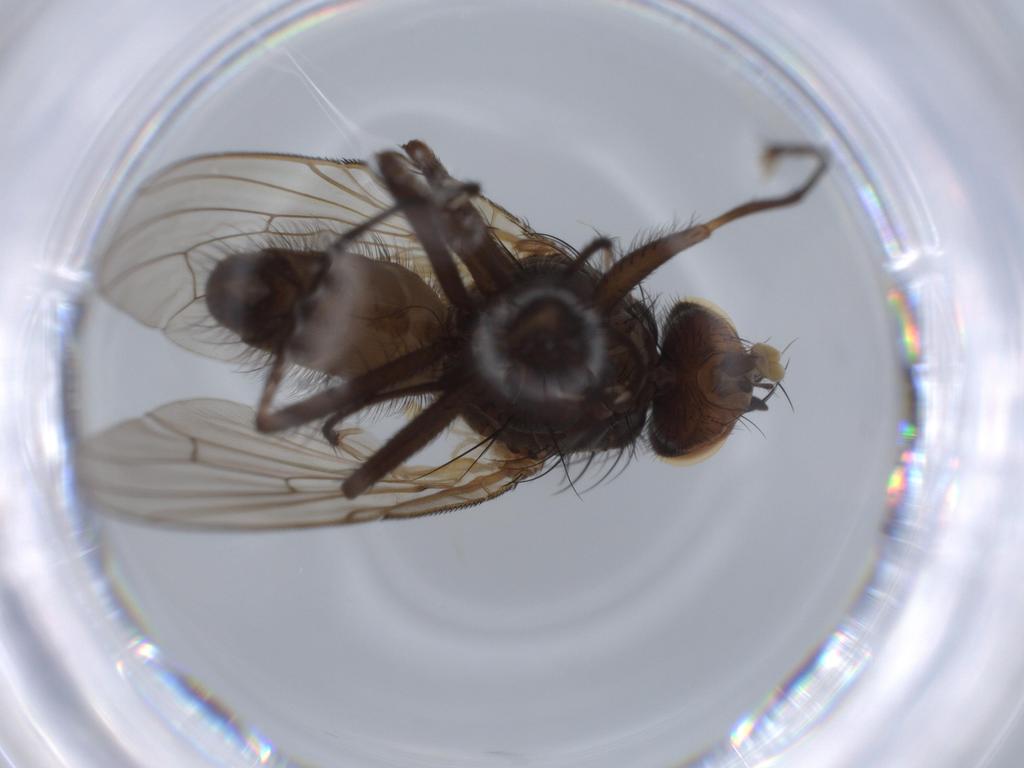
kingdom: Animalia
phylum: Arthropoda
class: Insecta
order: Diptera
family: Anthomyiidae
